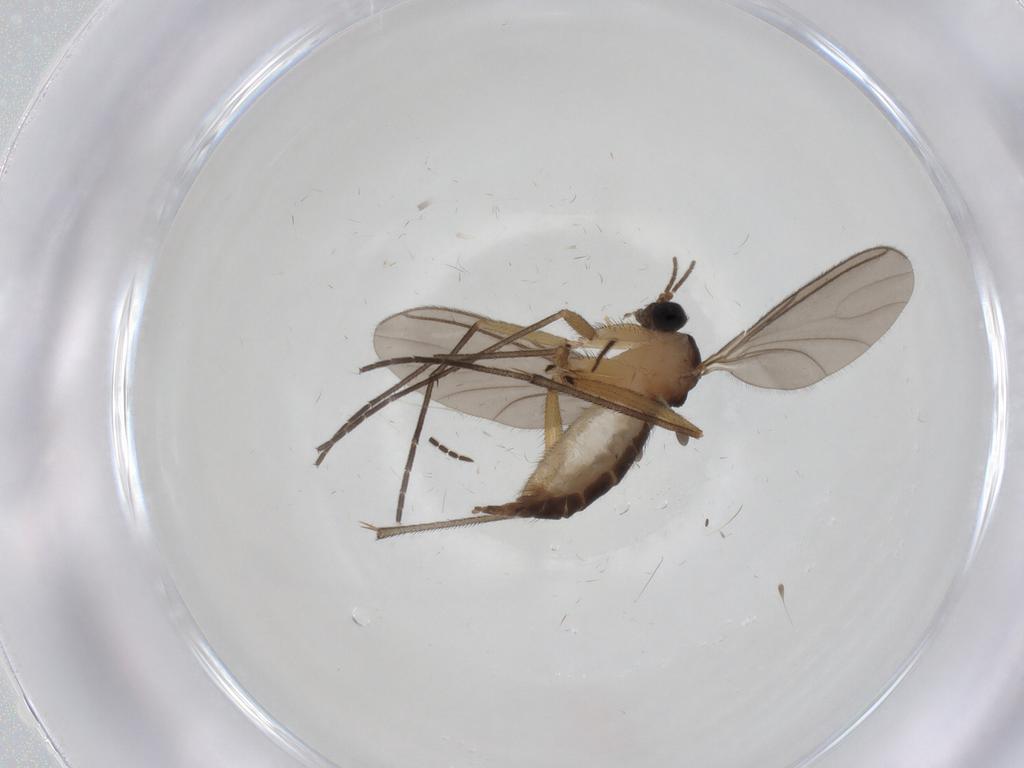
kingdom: Animalia
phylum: Arthropoda
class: Insecta
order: Diptera
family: Sciaridae
